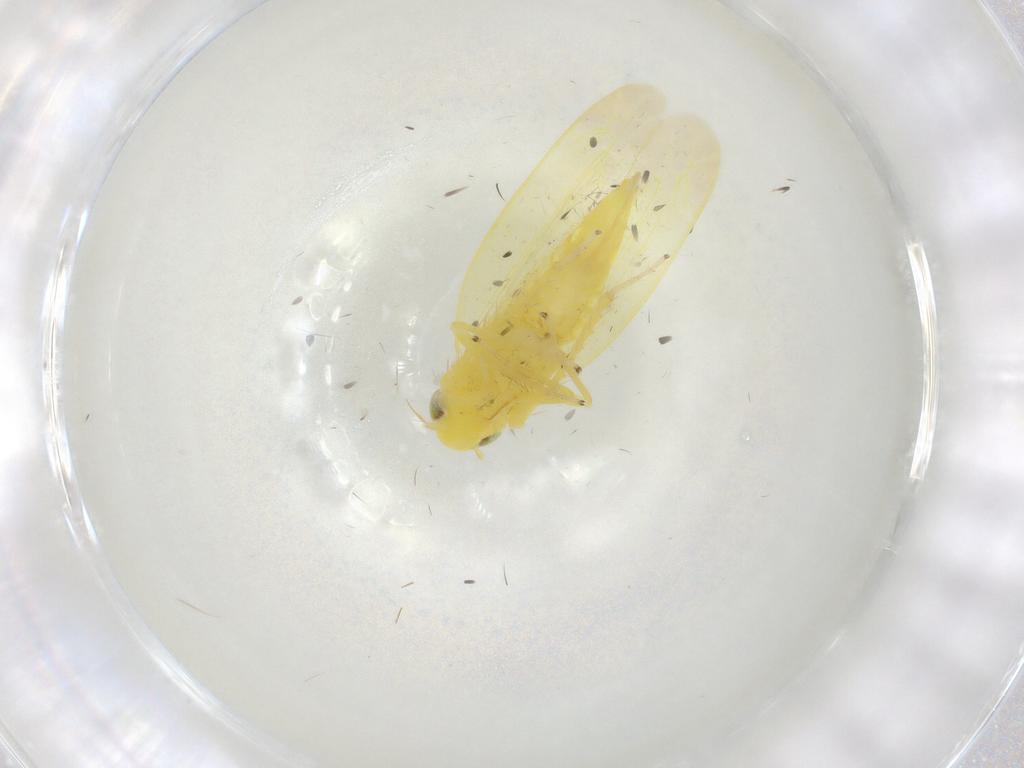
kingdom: Animalia
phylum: Arthropoda
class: Insecta
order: Hemiptera
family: Cicadellidae
